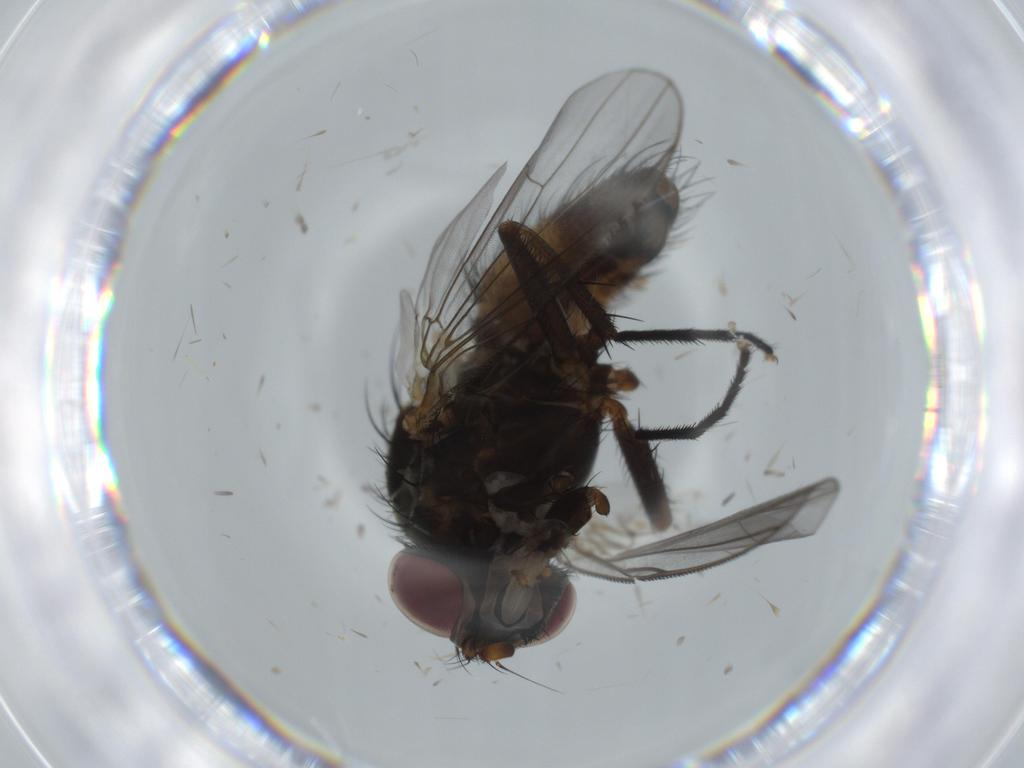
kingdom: Animalia
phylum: Arthropoda
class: Insecta
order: Diptera
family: Fannia
